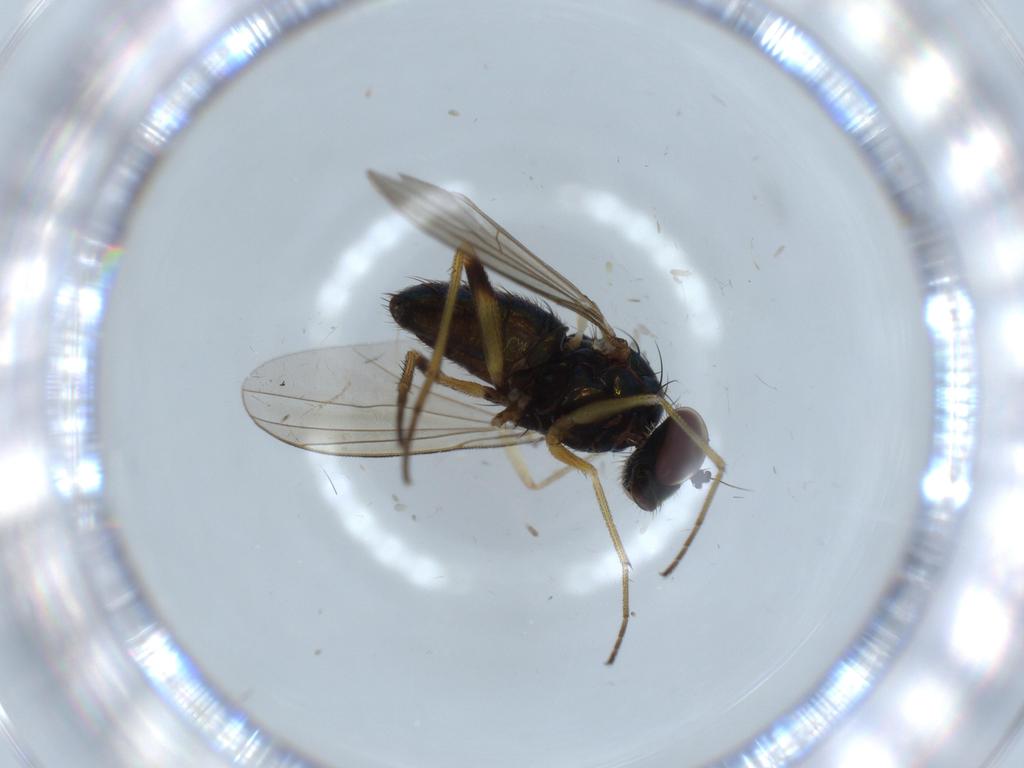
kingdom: Animalia
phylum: Arthropoda
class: Insecta
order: Diptera
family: Dolichopodidae
